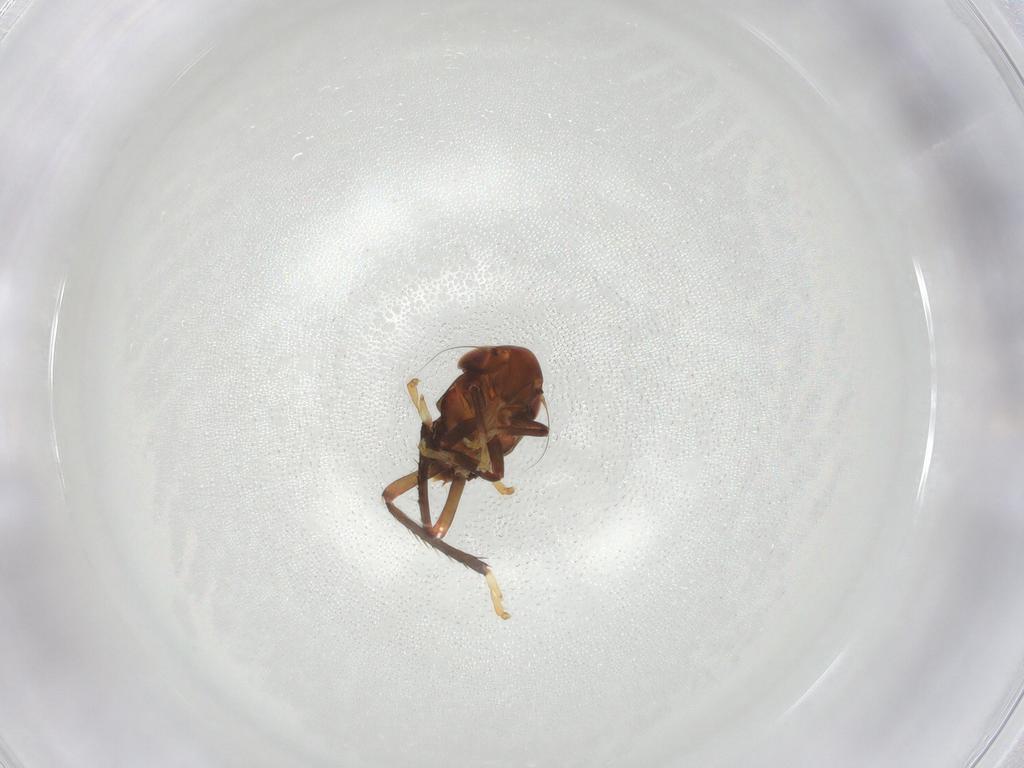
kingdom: Animalia
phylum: Arthropoda
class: Insecta
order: Hemiptera
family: Cicadellidae
